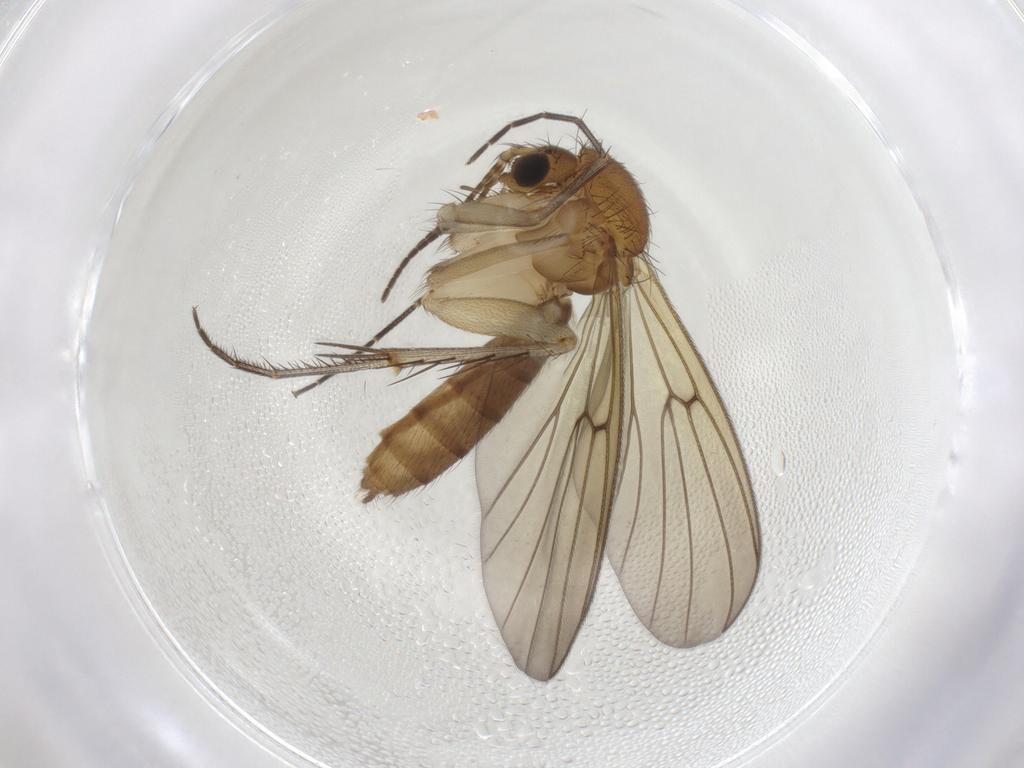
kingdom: Animalia
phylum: Arthropoda
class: Insecta
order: Diptera
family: Mycetophilidae
